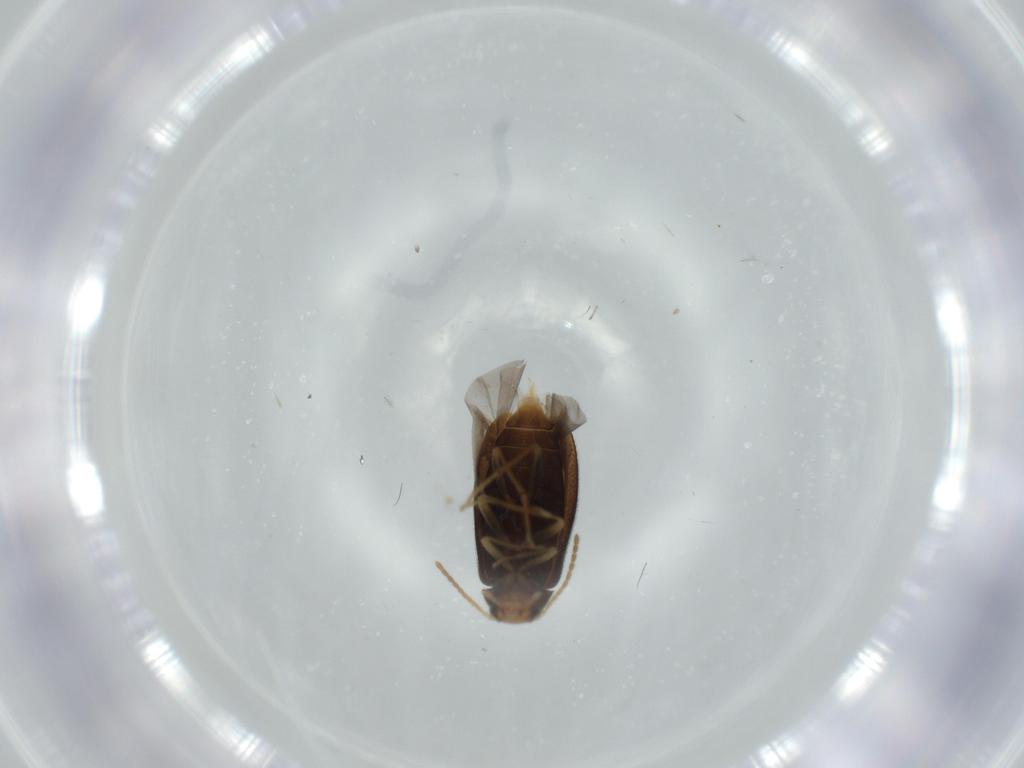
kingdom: Animalia
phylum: Arthropoda
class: Insecta
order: Coleoptera
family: Melandryidae
